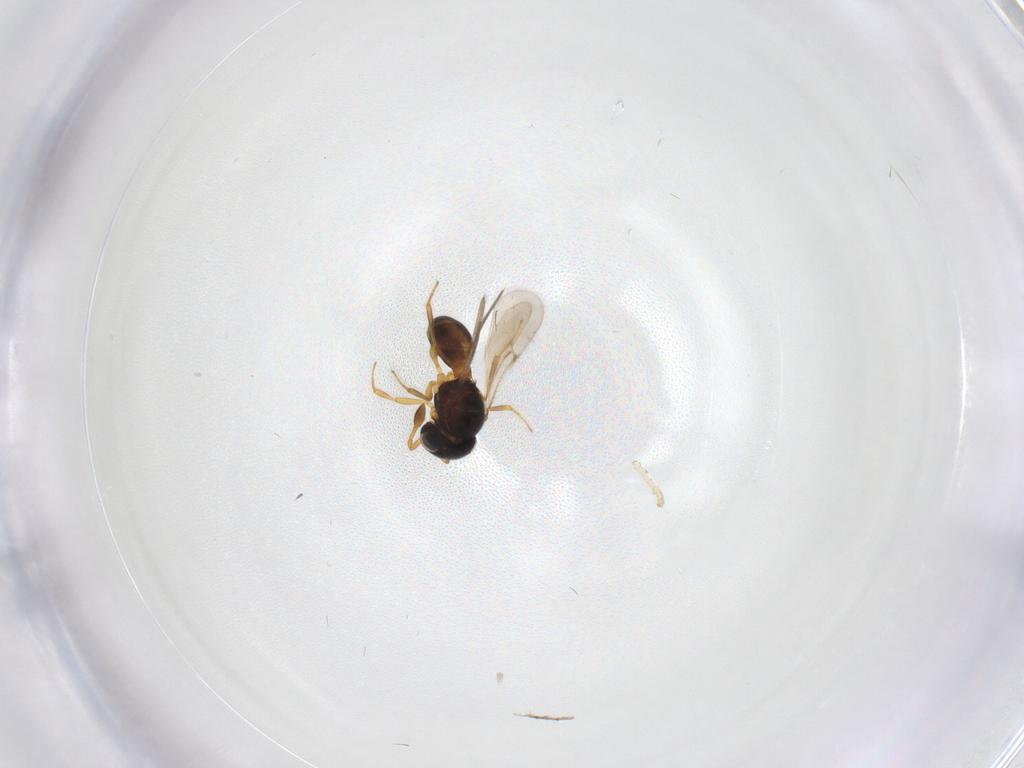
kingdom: Animalia
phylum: Arthropoda
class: Insecta
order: Hymenoptera
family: Scelionidae
